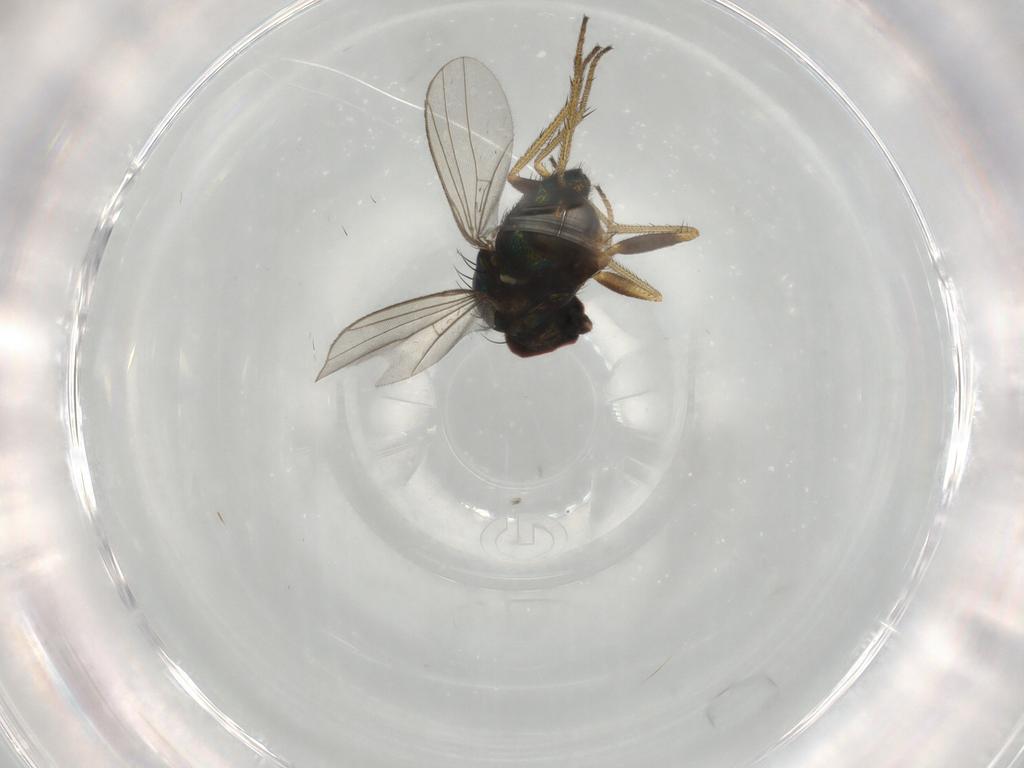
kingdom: Animalia
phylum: Arthropoda
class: Insecta
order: Diptera
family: Dolichopodidae
